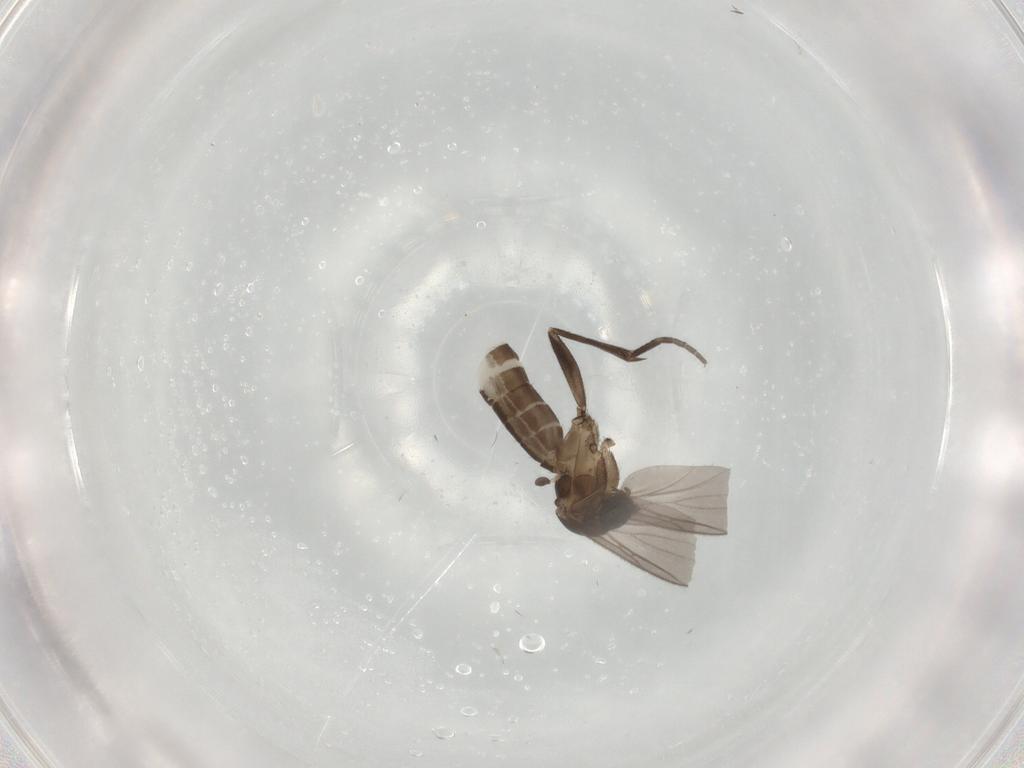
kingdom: Animalia
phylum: Arthropoda
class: Insecta
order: Diptera
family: Mycetophilidae
